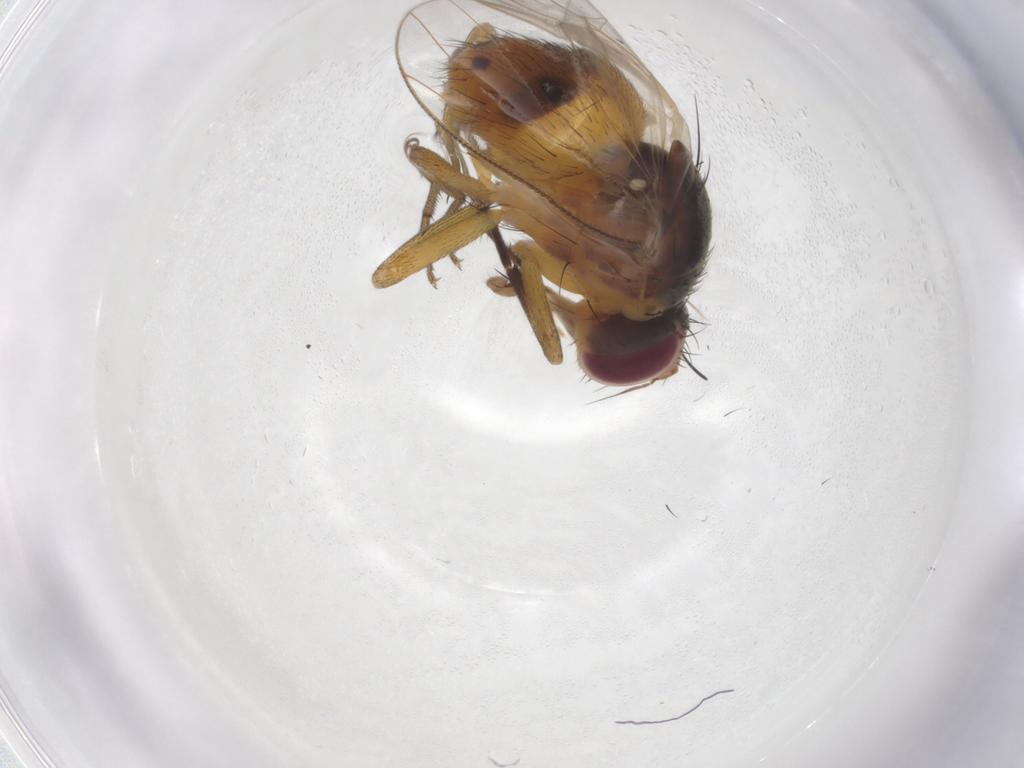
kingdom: Animalia
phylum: Arthropoda
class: Insecta
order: Diptera
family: Muscidae
